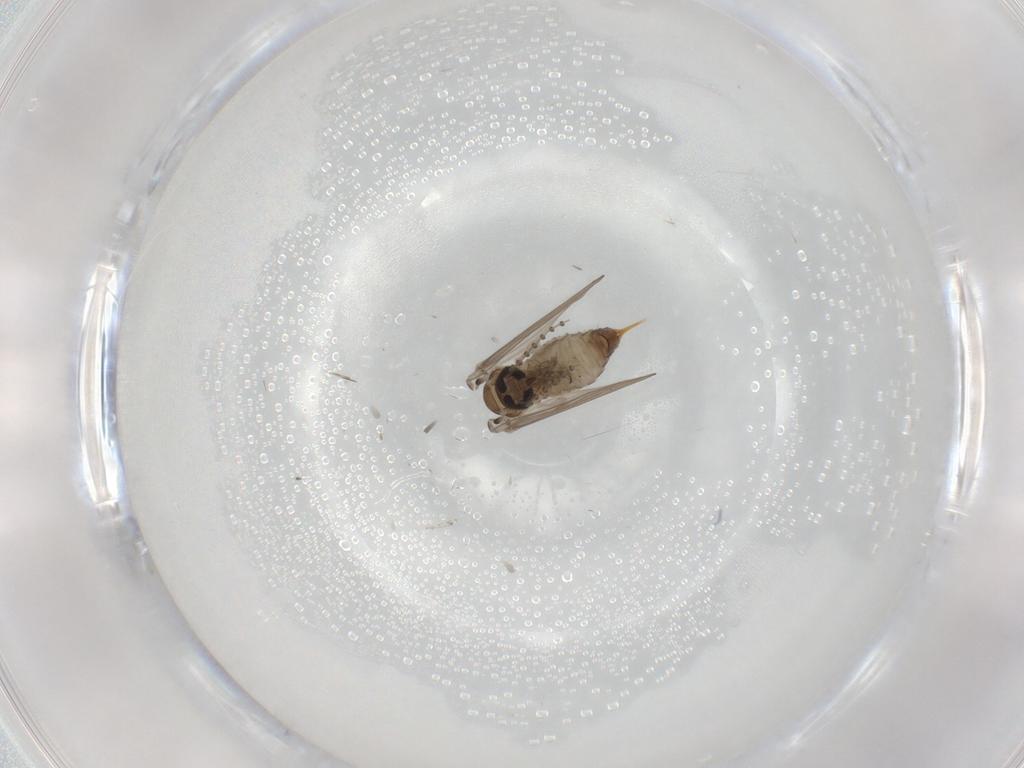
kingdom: Animalia
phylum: Arthropoda
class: Insecta
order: Diptera
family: Psychodidae
